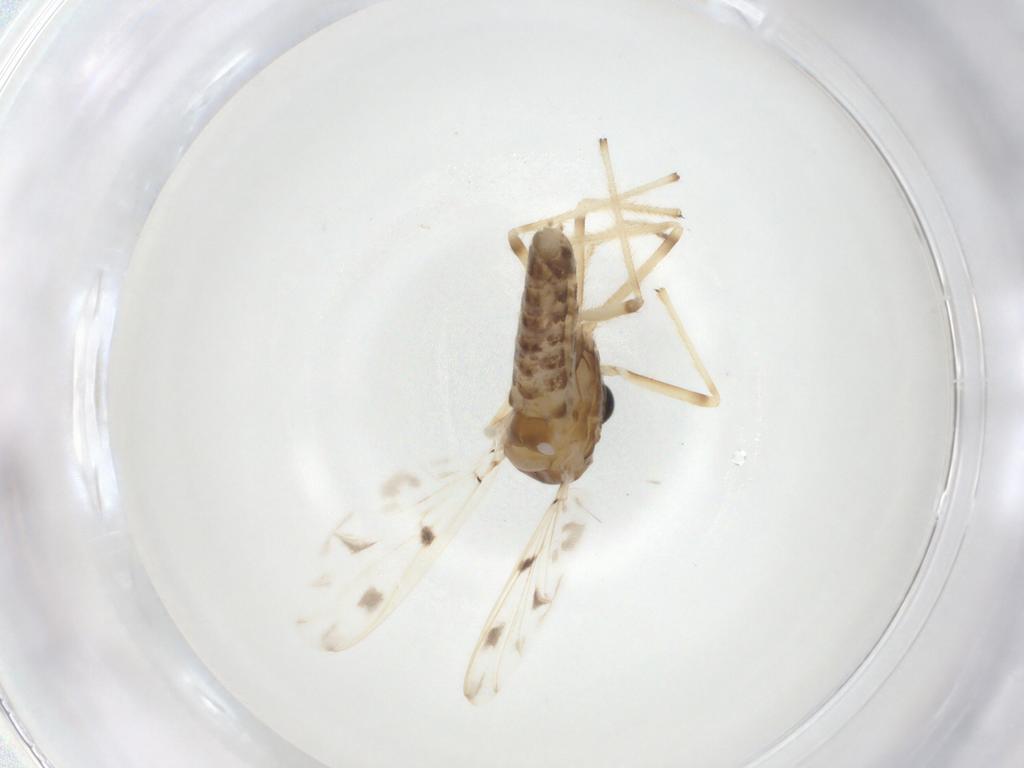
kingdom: Animalia
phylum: Arthropoda
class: Insecta
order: Diptera
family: Chironomidae
